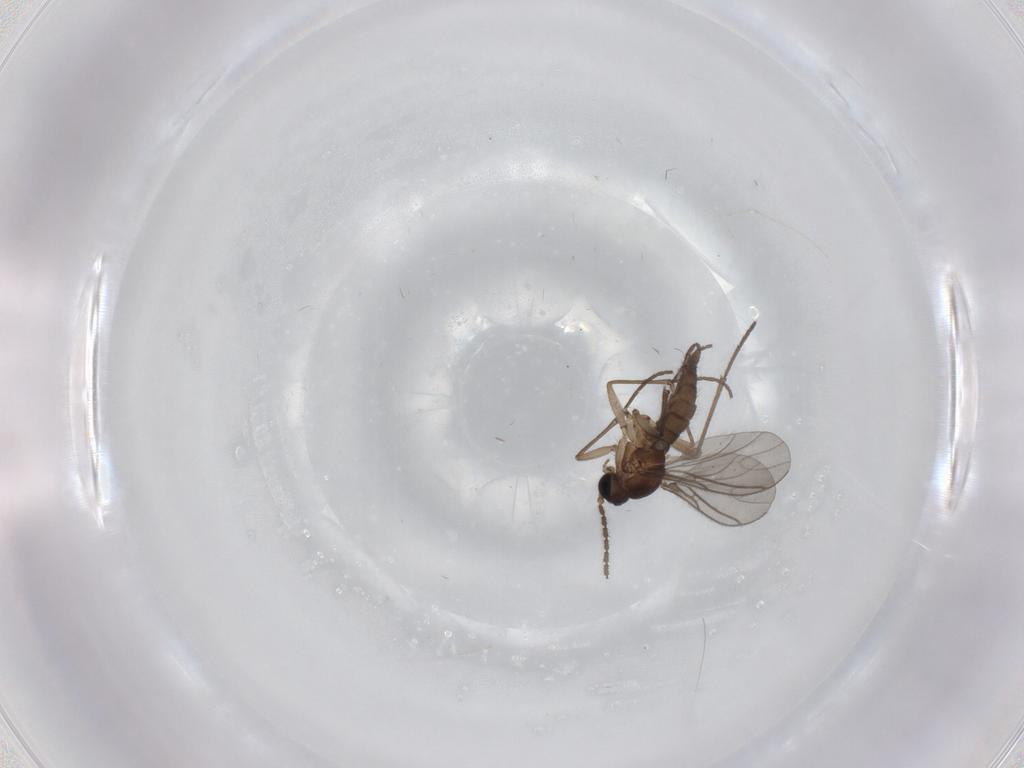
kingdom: Animalia
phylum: Arthropoda
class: Insecta
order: Diptera
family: Sciaridae
